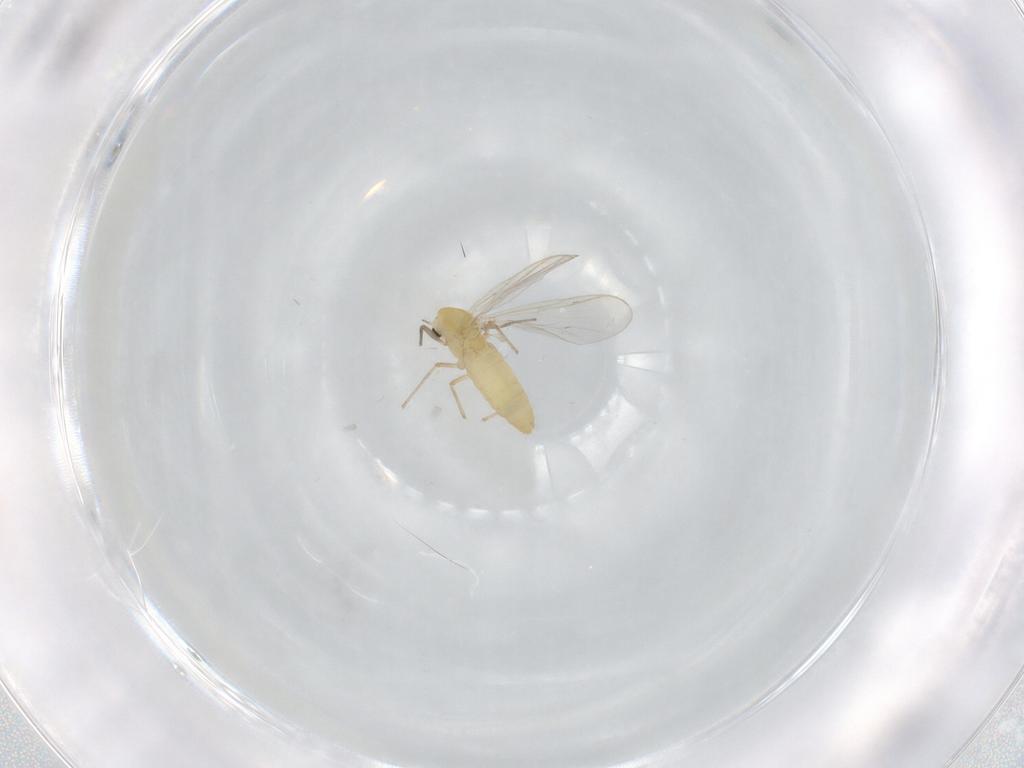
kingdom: Animalia
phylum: Arthropoda
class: Insecta
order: Diptera
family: Chironomidae
